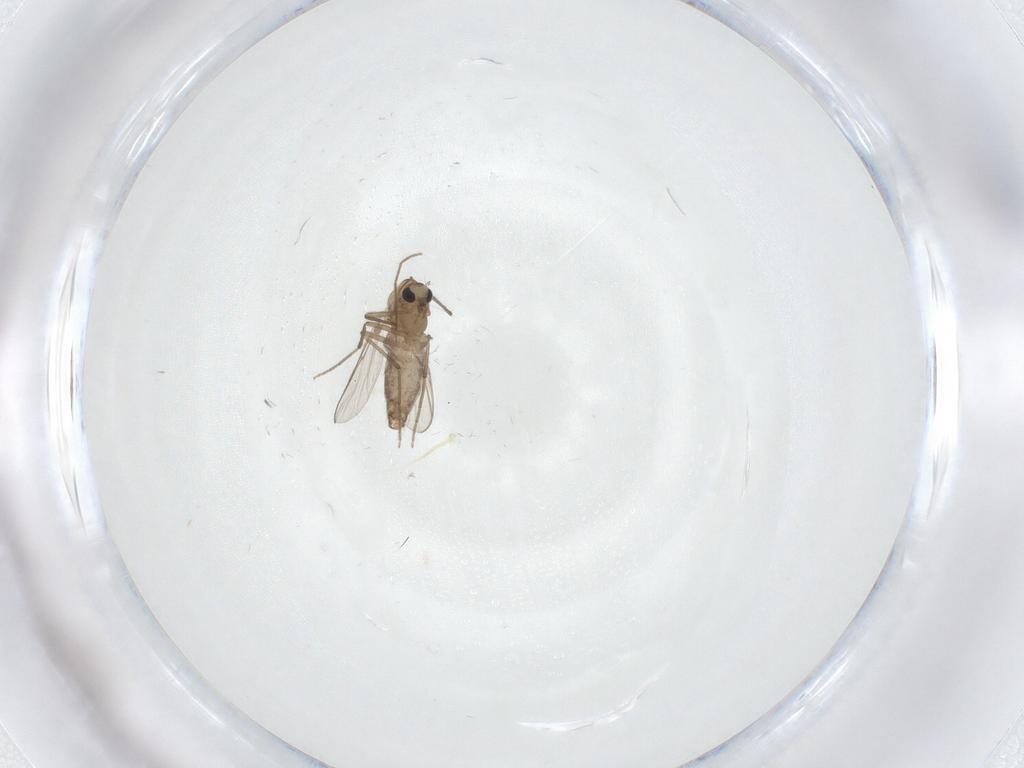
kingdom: Animalia
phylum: Arthropoda
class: Insecta
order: Diptera
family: Chironomidae
